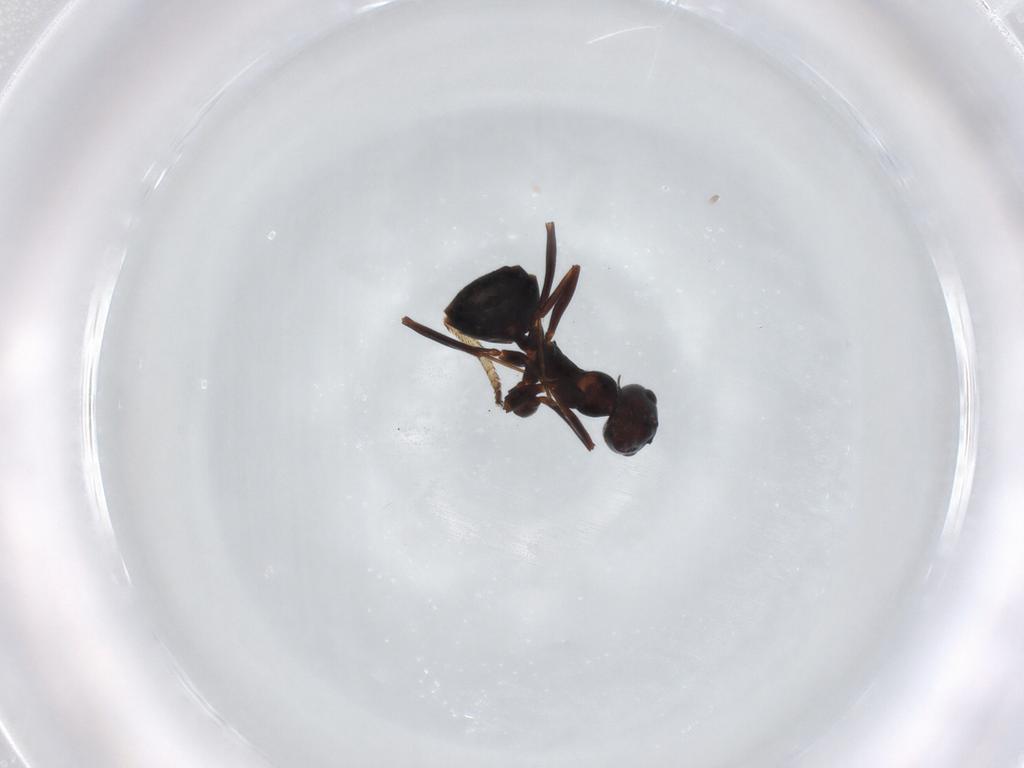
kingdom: Animalia
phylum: Arthropoda
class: Insecta
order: Hymenoptera
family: Formicidae
